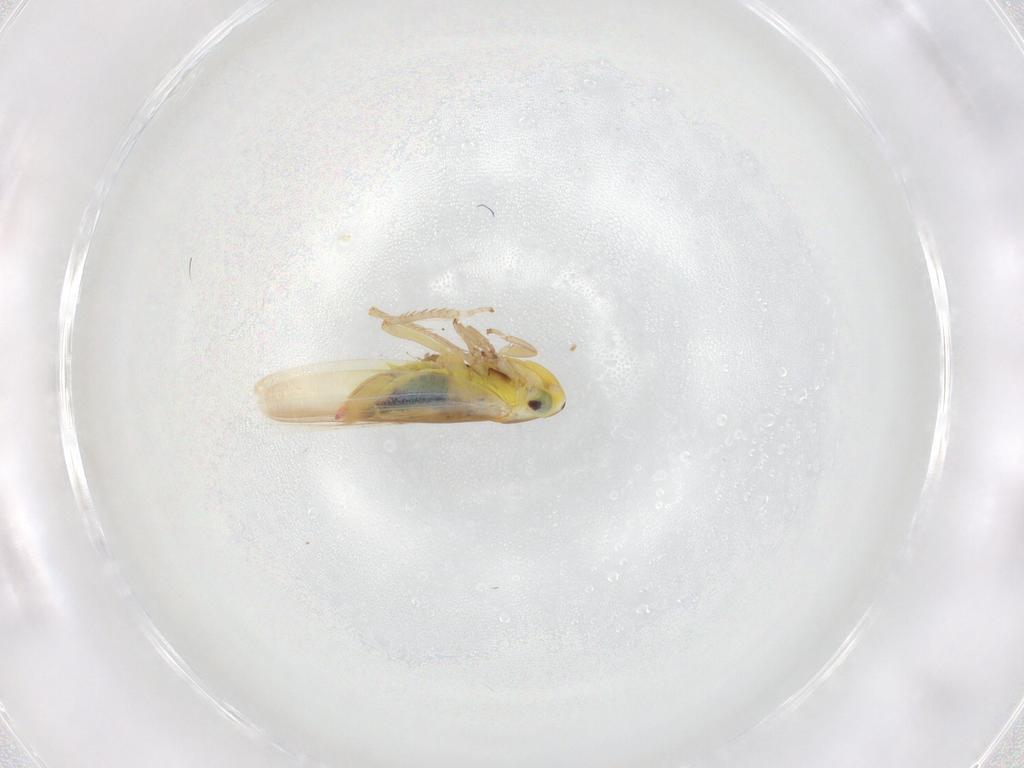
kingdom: Animalia
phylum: Arthropoda
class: Insecta
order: Hemiptera
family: Cicadellidae
